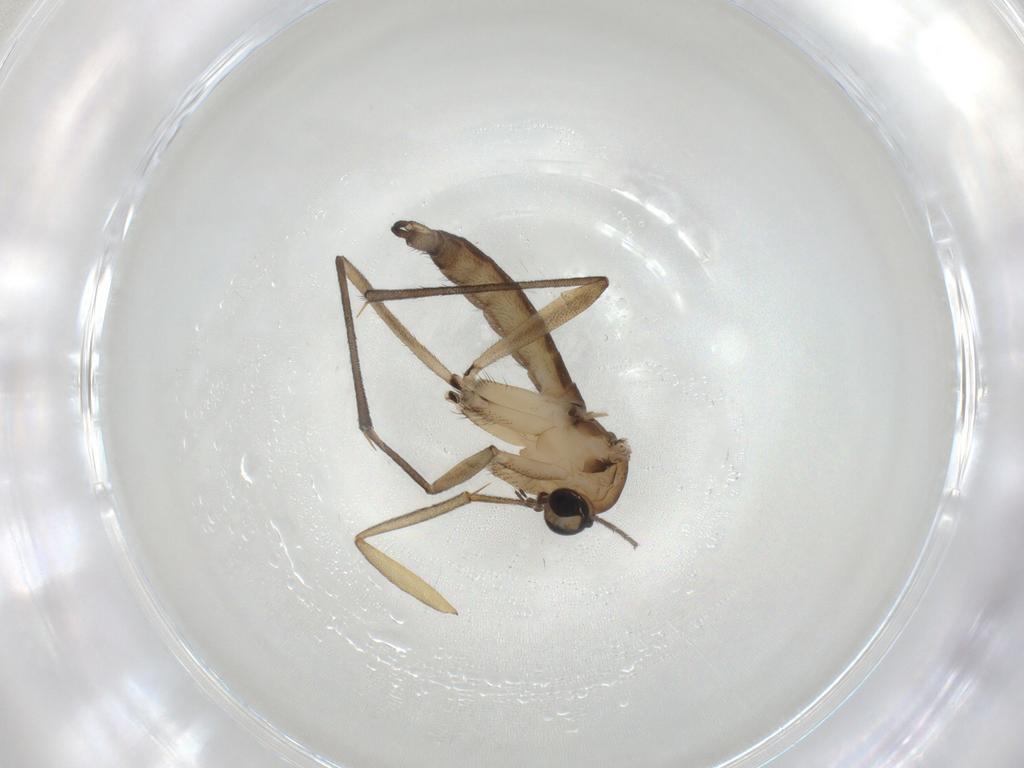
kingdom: Animalia
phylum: Arthropoda
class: Insecta
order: Diptera
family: Sciaridae
